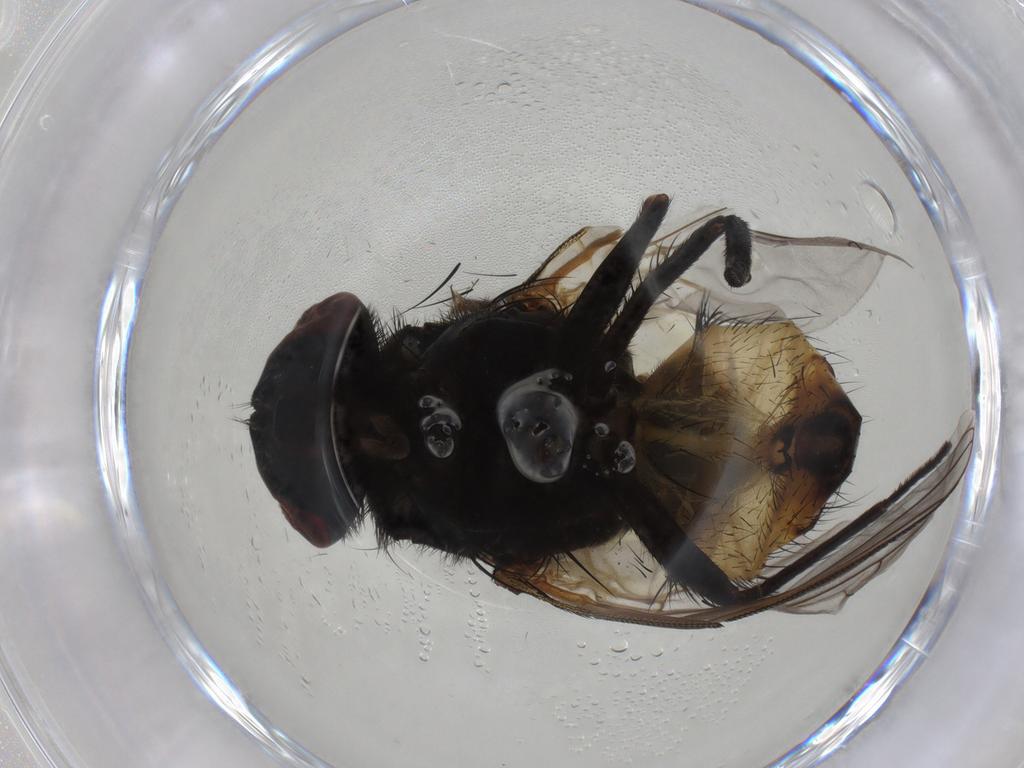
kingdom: Animalia
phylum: Arthropoda
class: Insecta
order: Diptera
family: Muscidae
